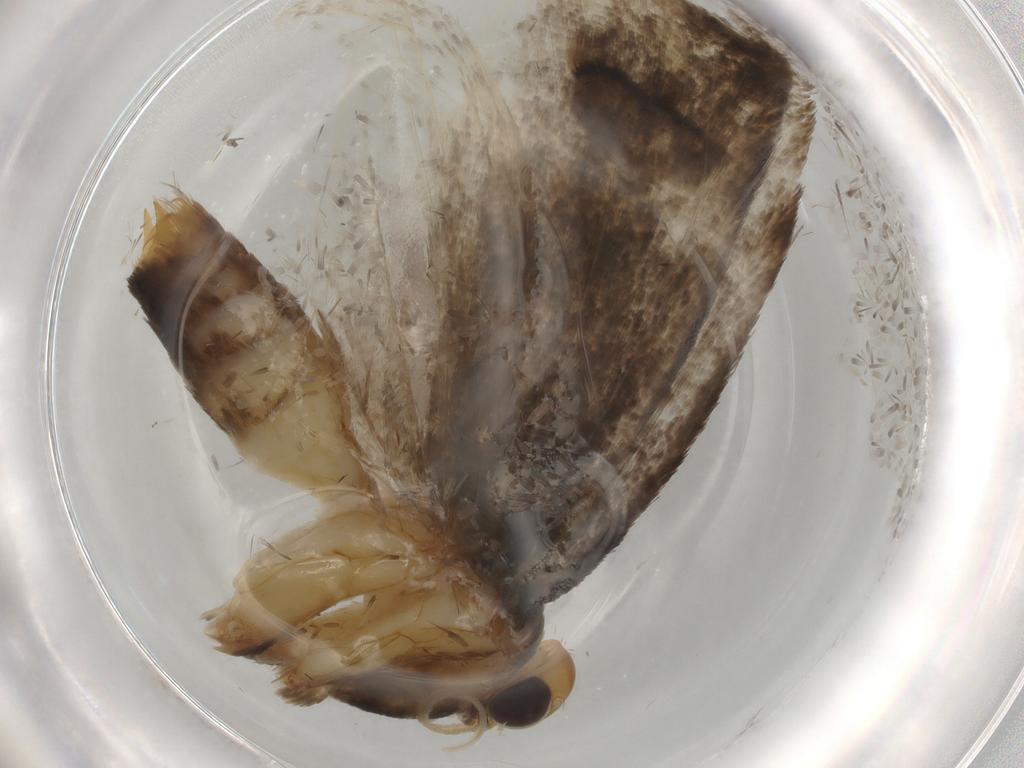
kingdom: Animalia
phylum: Arthropoda
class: Insecta
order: Lepidoptera
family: Oecophoridae
